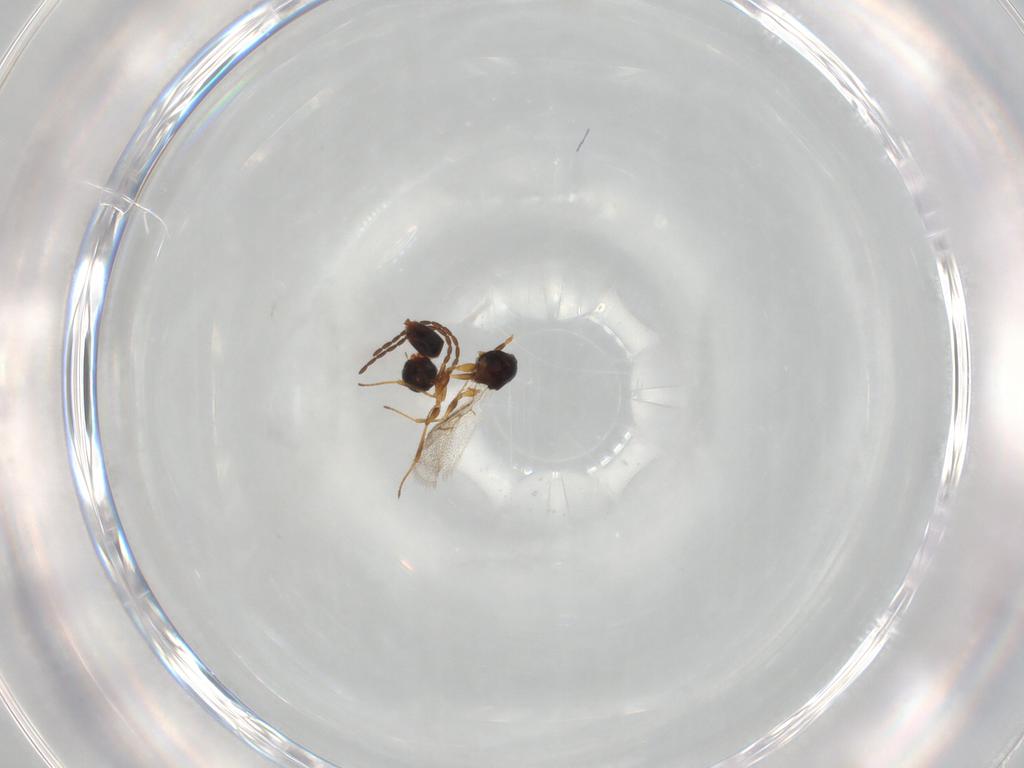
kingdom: Animalia
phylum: Arthropoda
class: Insecta
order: Hymenoptera
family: Figitidae
